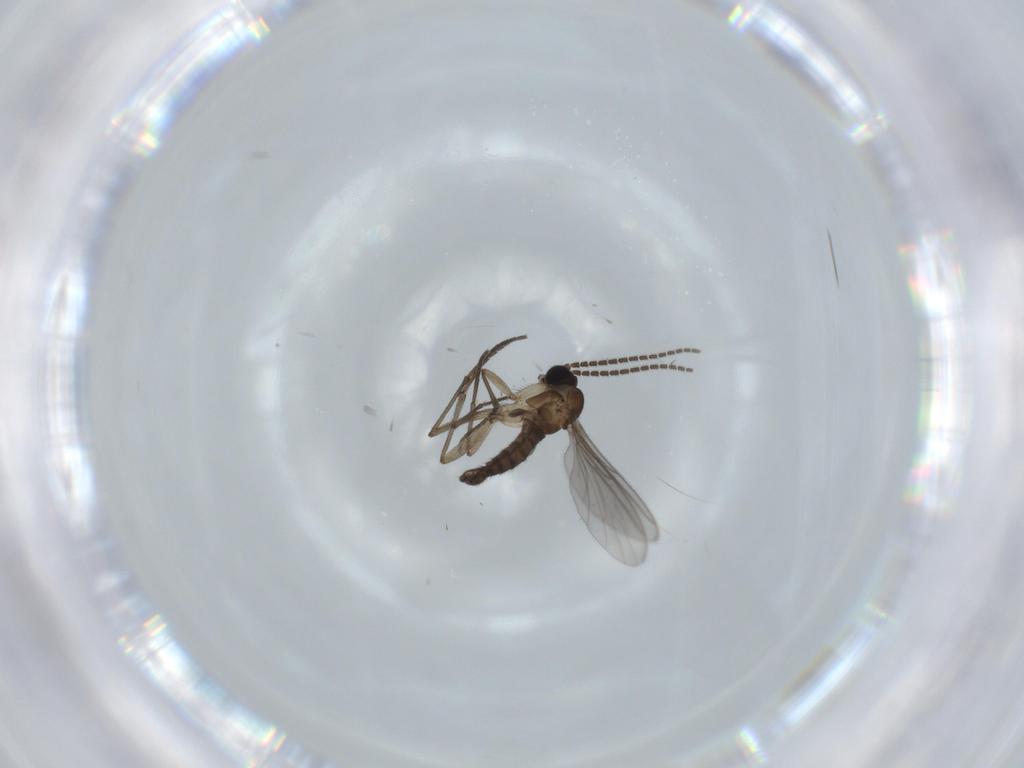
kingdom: Animalia
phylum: Arthropoda
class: Insecta
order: Diptera
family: Sciaridae
